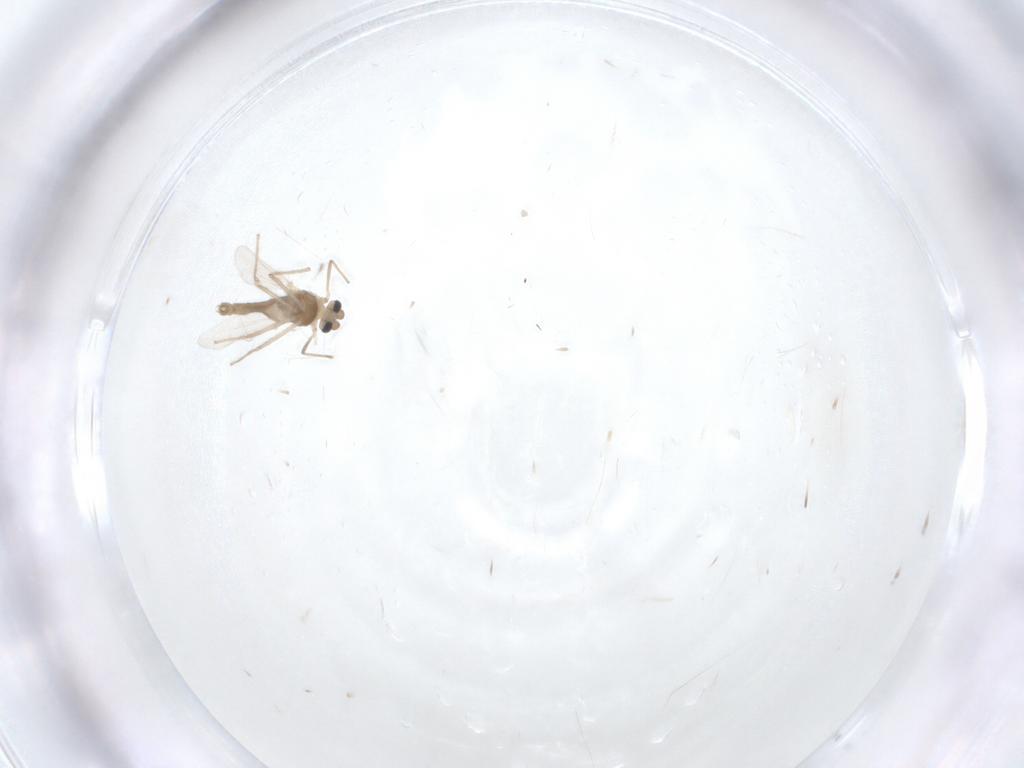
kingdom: Animalia
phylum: Arthropoda
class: Insecta
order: Diptera
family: Chironomidae
